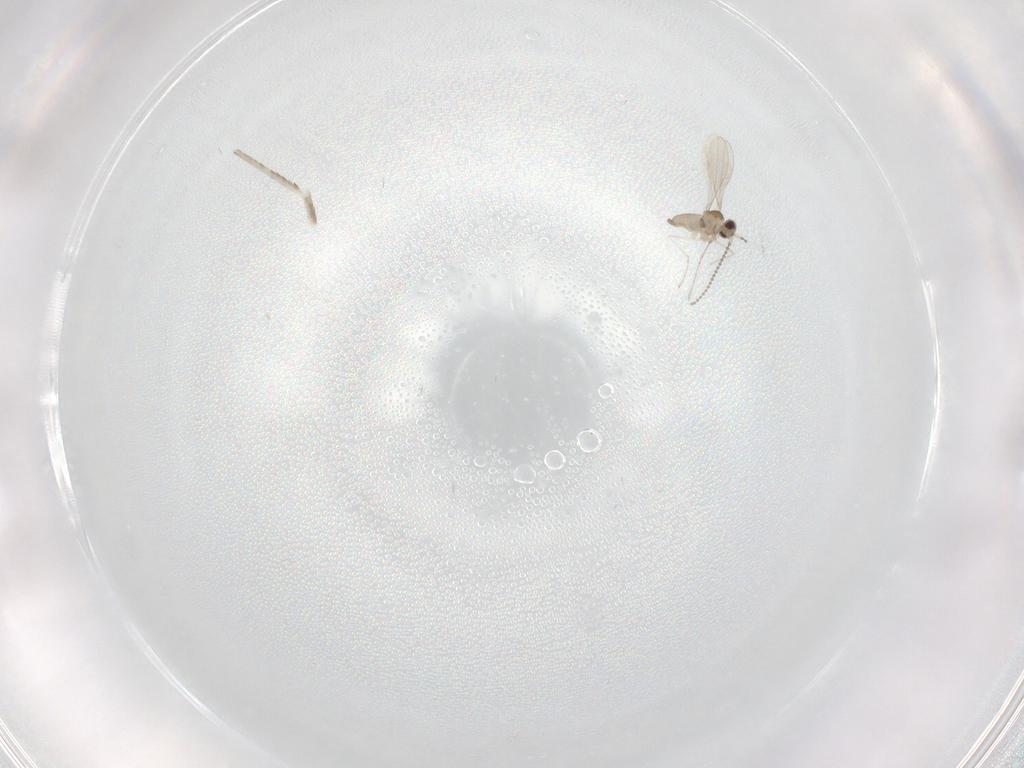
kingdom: Animalia
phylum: Arthropoda
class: Insecta
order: Diptera
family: Cecidomyiidae
